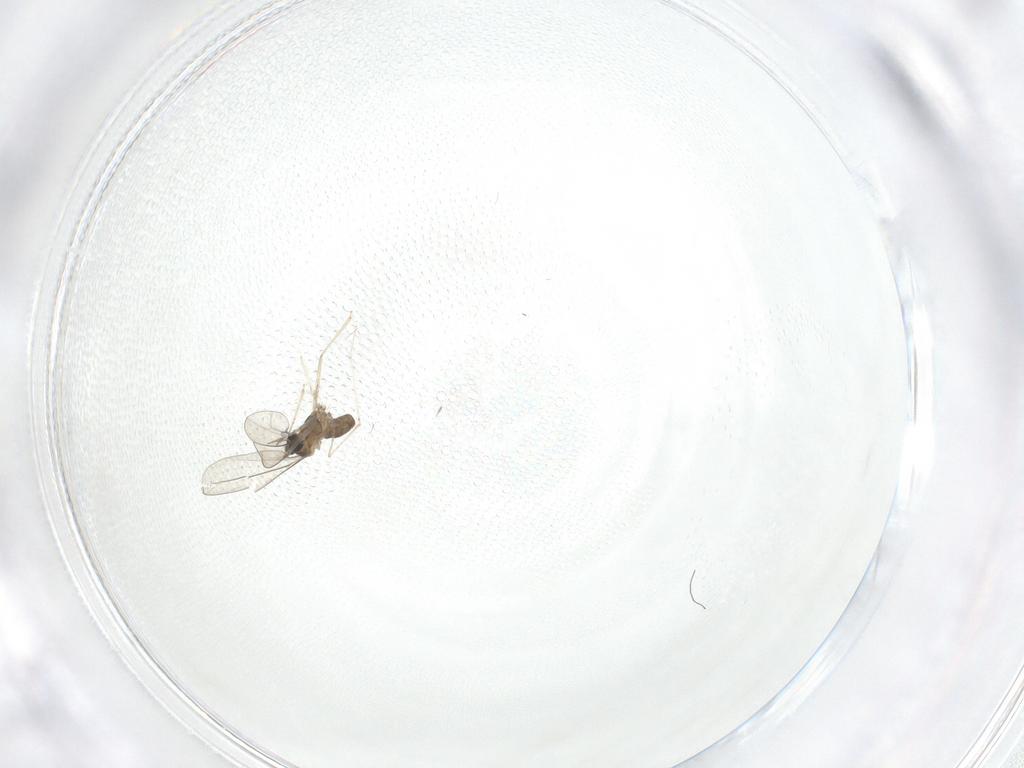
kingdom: Animalia
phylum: Arthropoda
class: Insecta
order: Diptera
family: Cecidomyiidae
